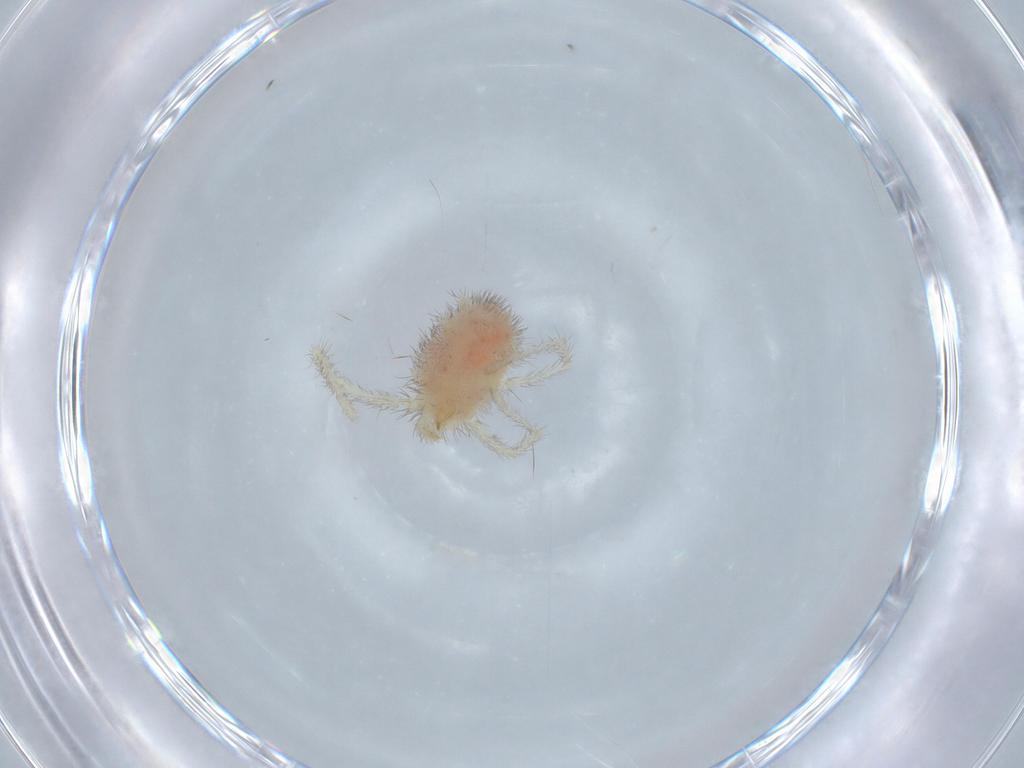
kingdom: Animalia
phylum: Arthropoda
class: Arachnida
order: Trombidiformes
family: Erythraeidae
